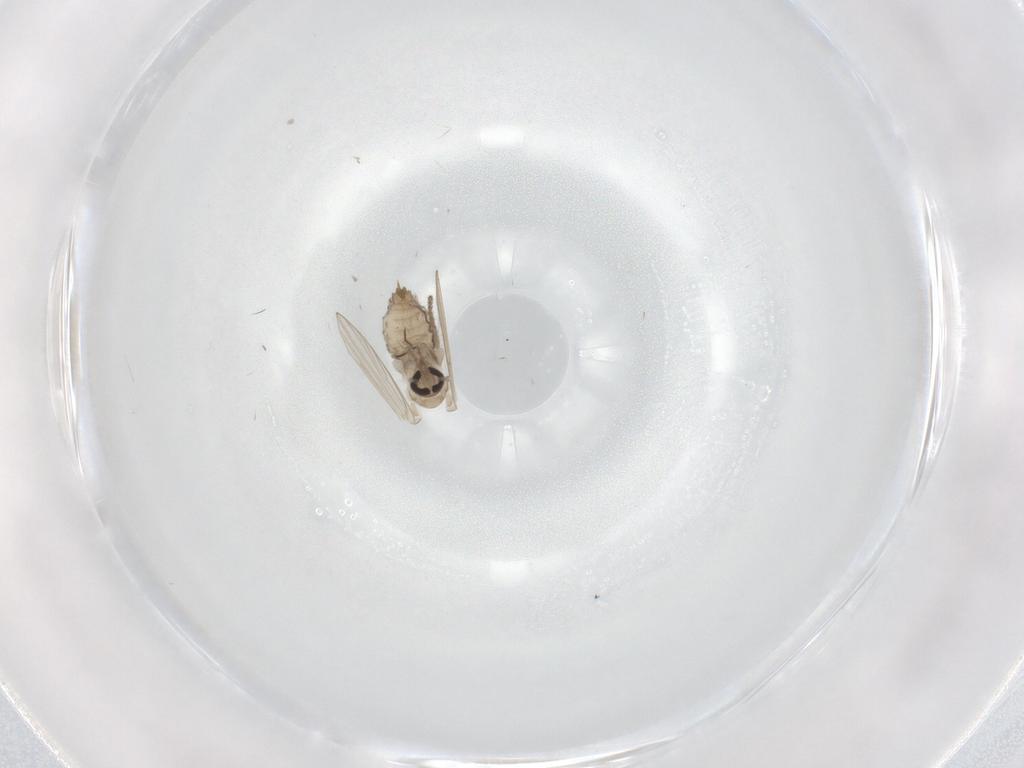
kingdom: Animalia
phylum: Arthropoda
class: Insecta
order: Diptera
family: Psychodidae
